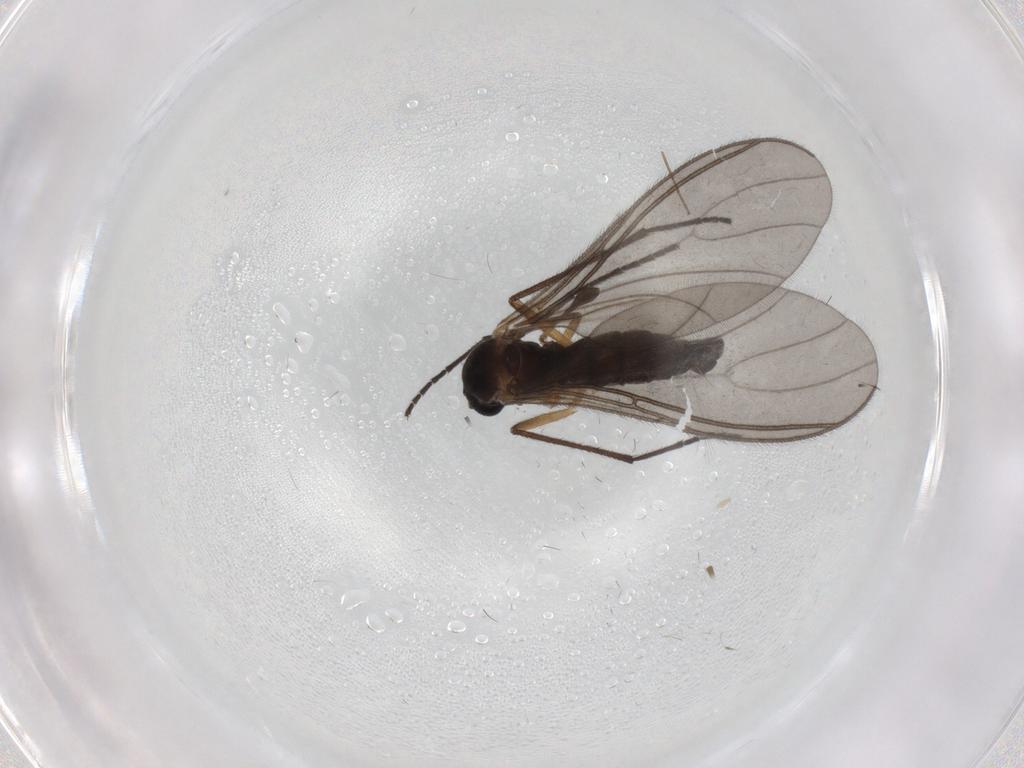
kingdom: Animalia
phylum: Arthropoda
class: Insecta
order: Diptera
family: Sciaridae
